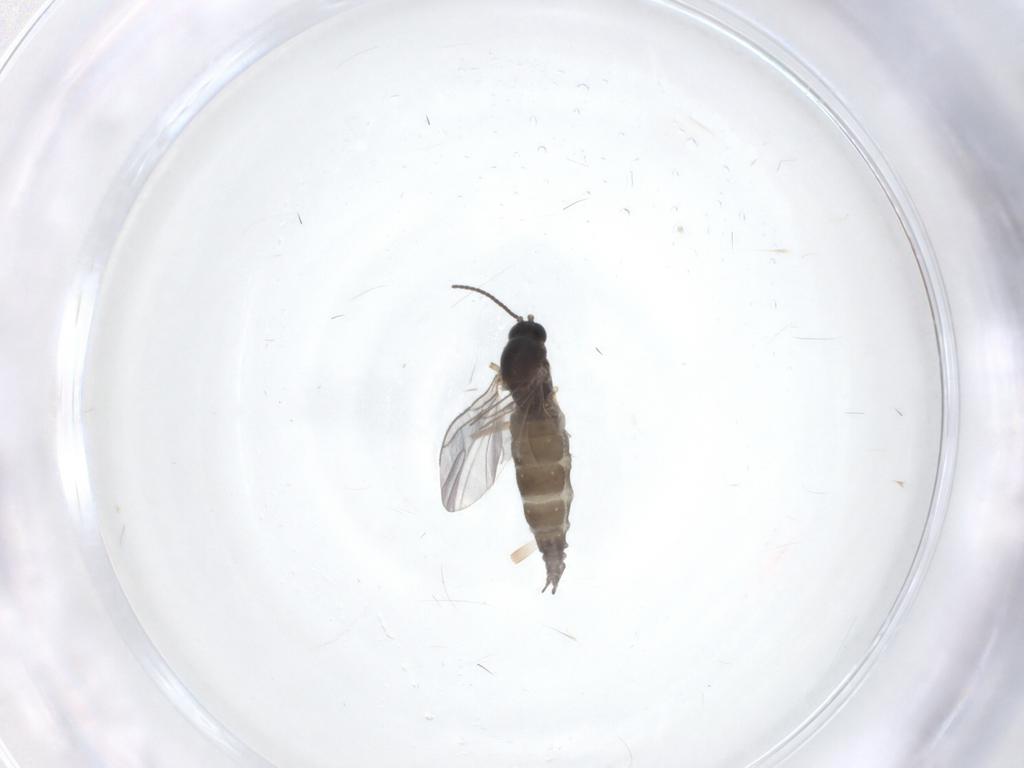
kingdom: Animalia
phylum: Arthropoda
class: Insecta
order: Diptera
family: Sciaridae
